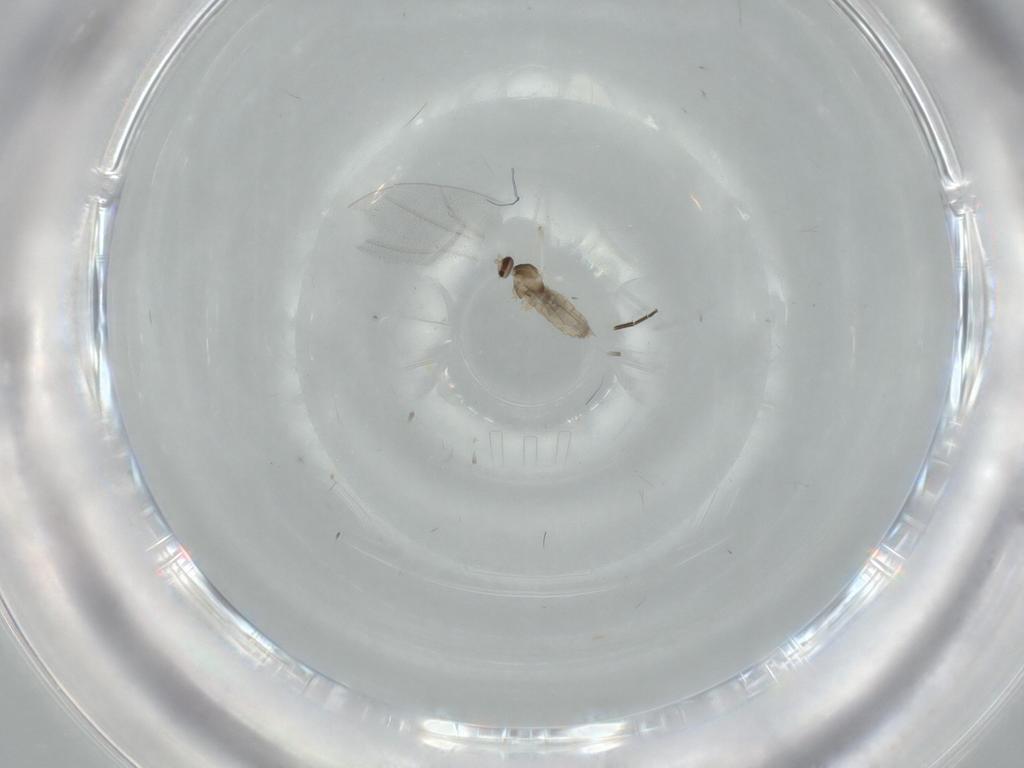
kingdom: Animalia
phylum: Arthropoda
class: Insecta
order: Diptera
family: Cecidomyiidae
